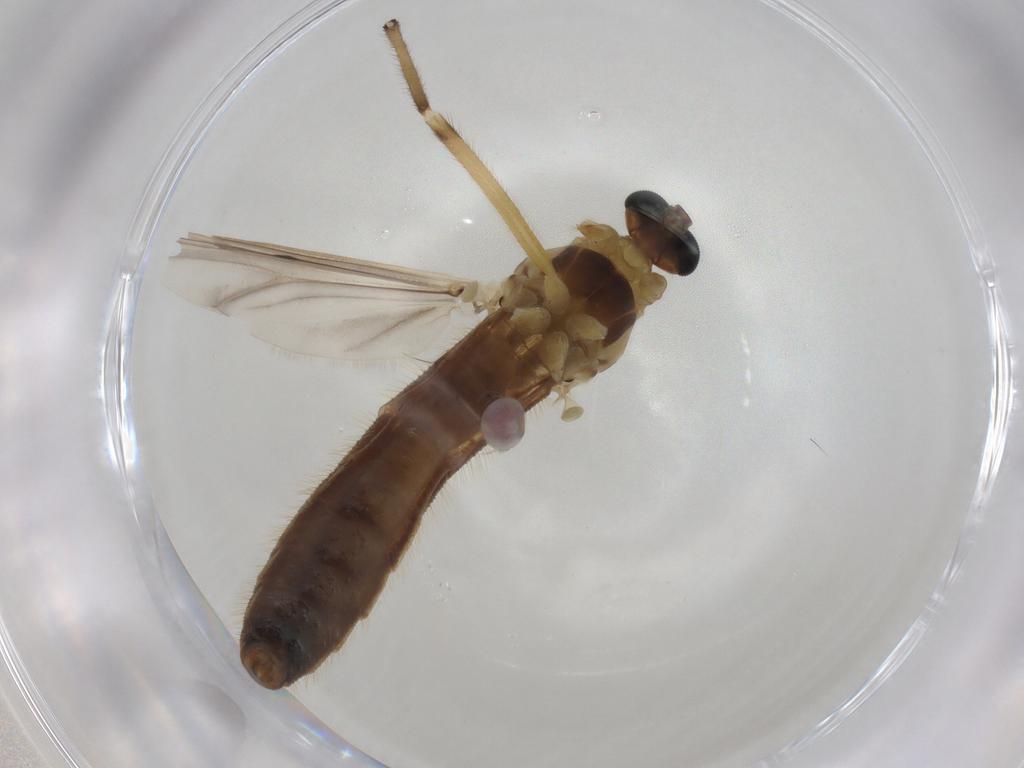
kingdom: Animalia
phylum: Arthropoda
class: Insecta
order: Diptera
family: Chironomidae
